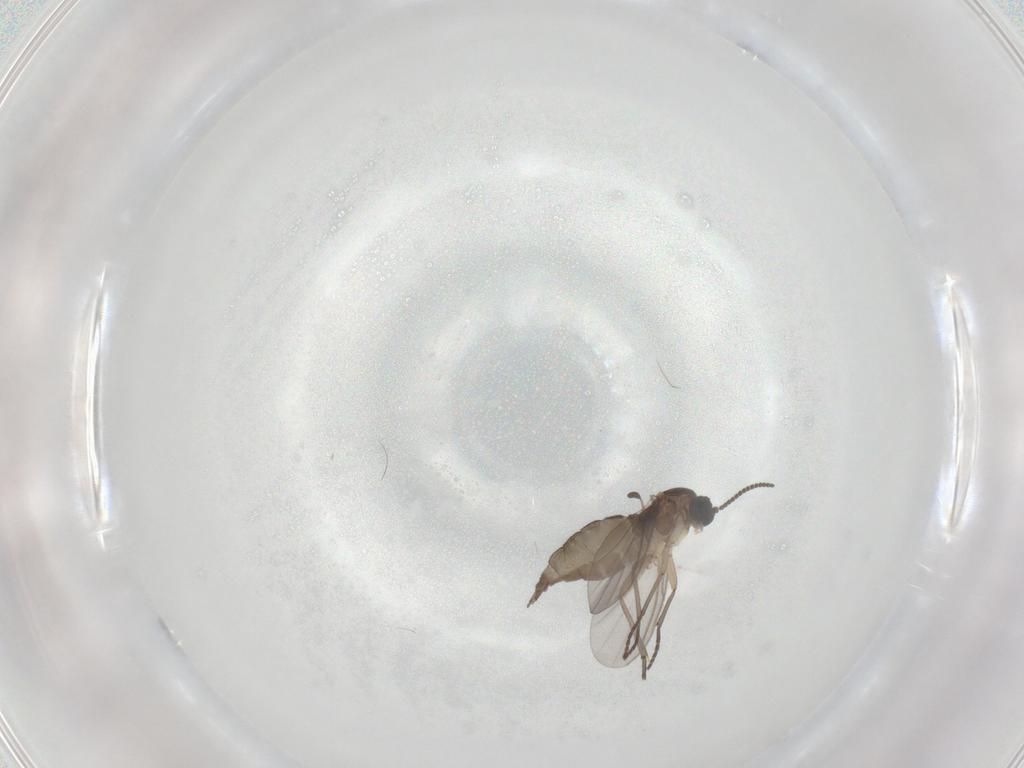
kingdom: Animalia
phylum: Arthropoda
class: Insecta
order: Diptera
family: Sciaridae
